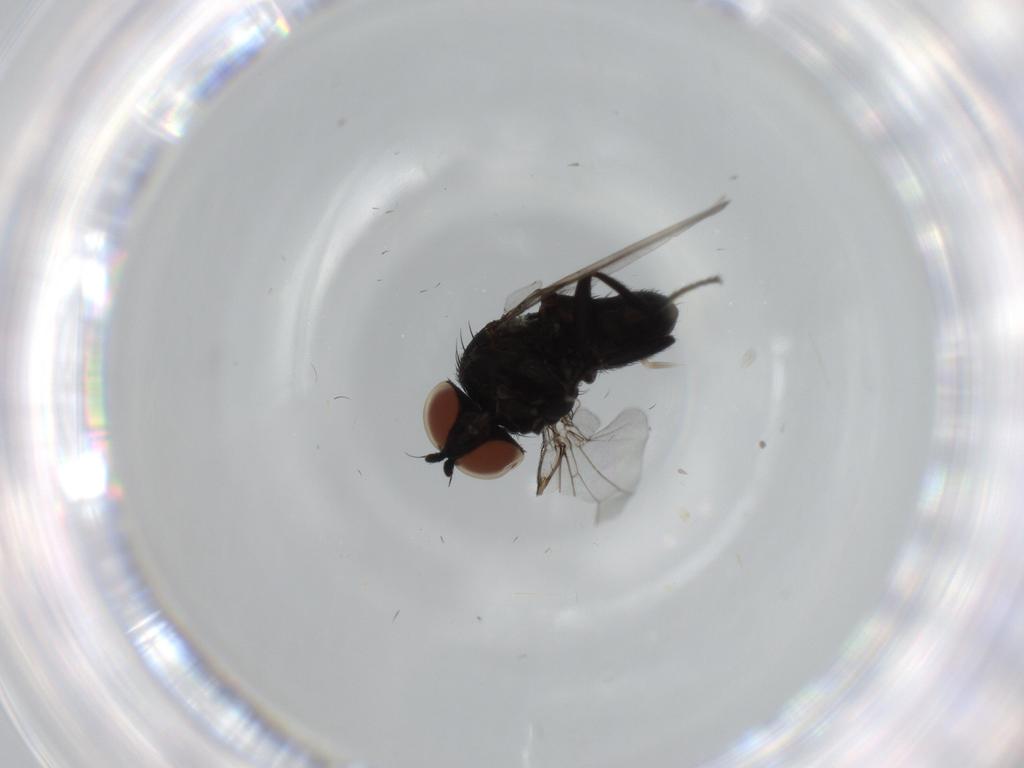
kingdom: Animalia
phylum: Arthropoda
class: Insecta
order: Diptera
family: Milichiidae
